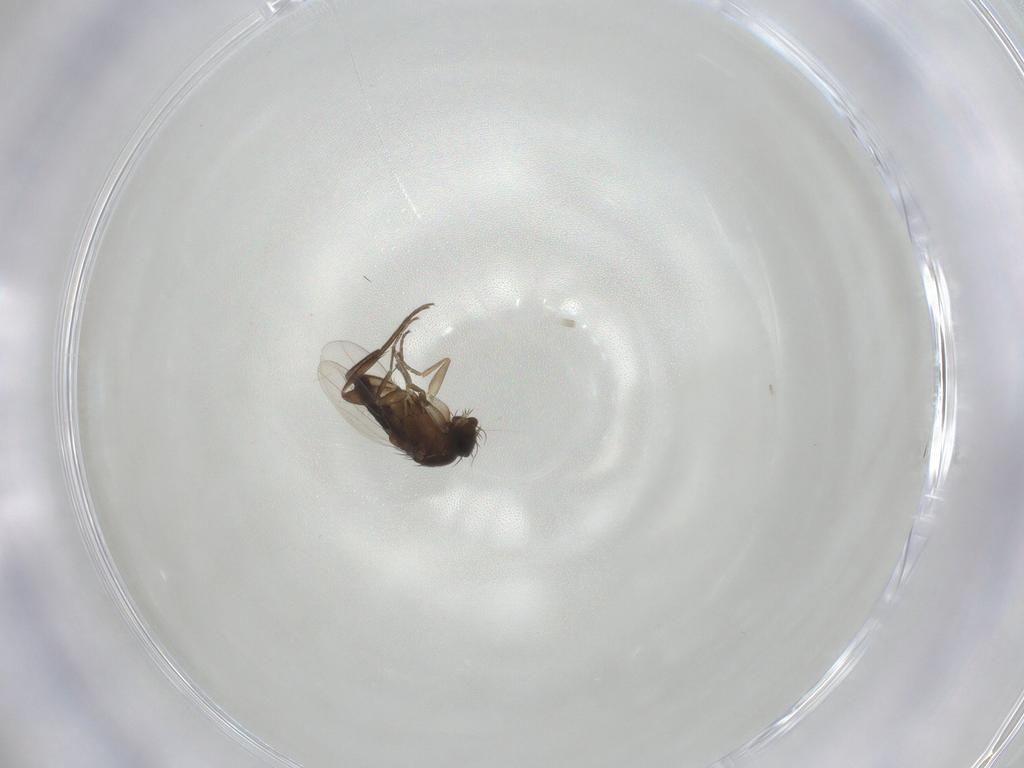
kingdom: Animalia
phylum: Arthropoda
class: Insecta
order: Diptera
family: Phoridae
